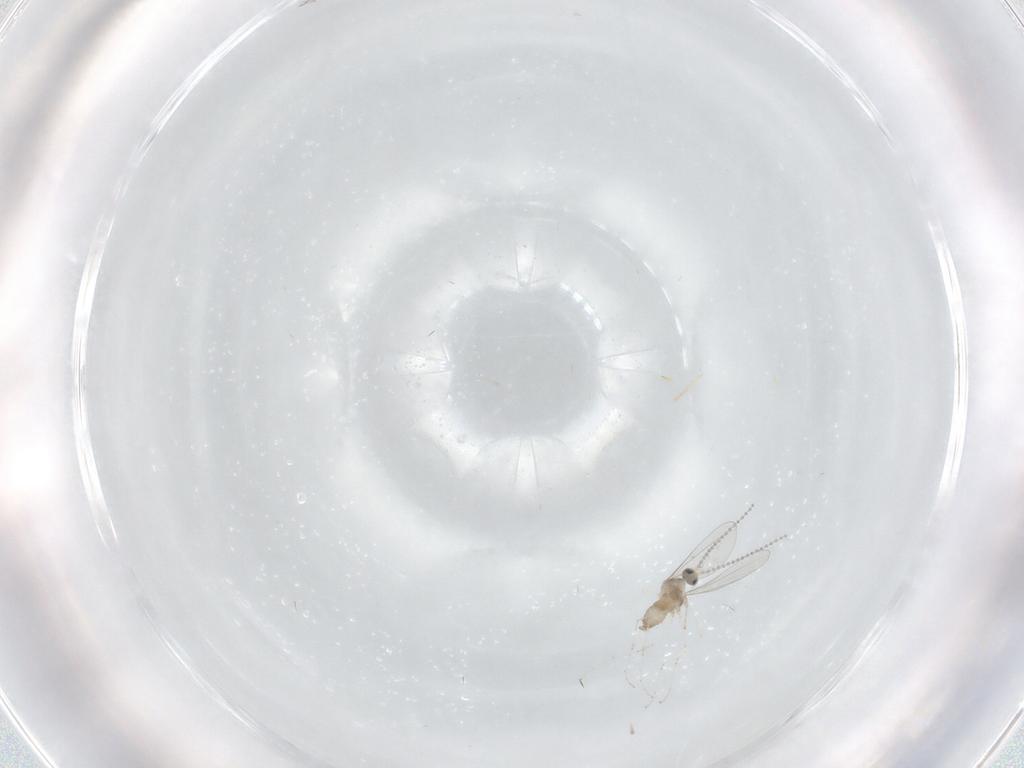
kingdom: Animalia
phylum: Arthropoda
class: Insecta
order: Diptera
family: Cecidomyiidae
